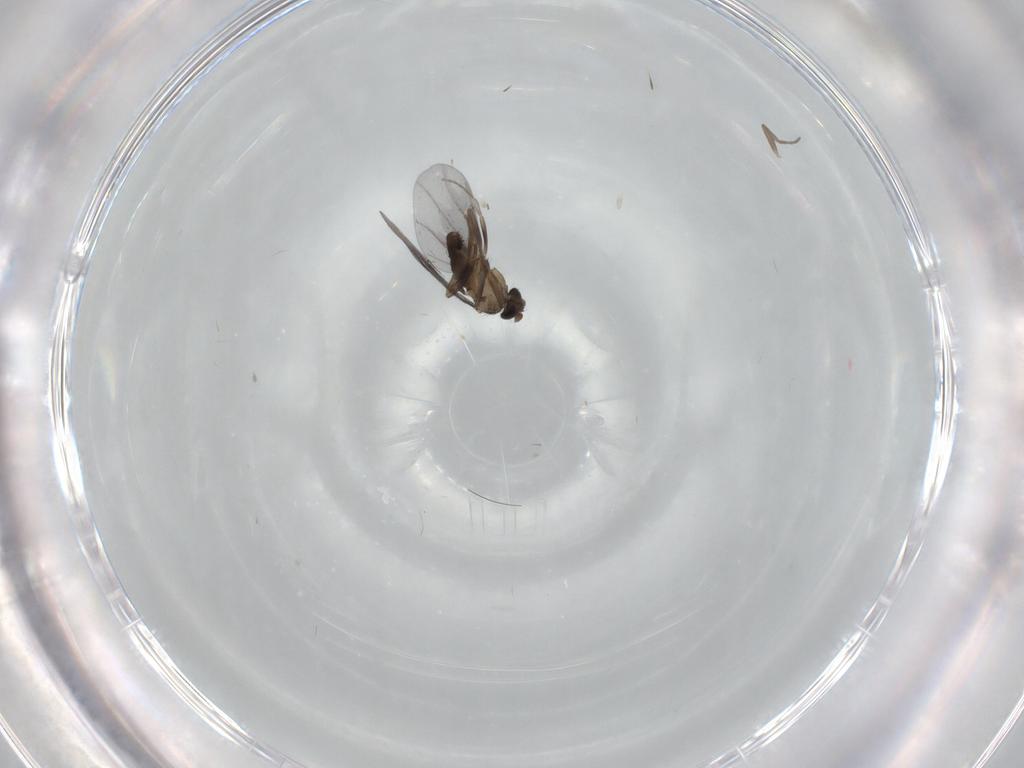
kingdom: Animalia
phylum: Arthropoda
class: Insecta
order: Diptera
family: Phoridae
